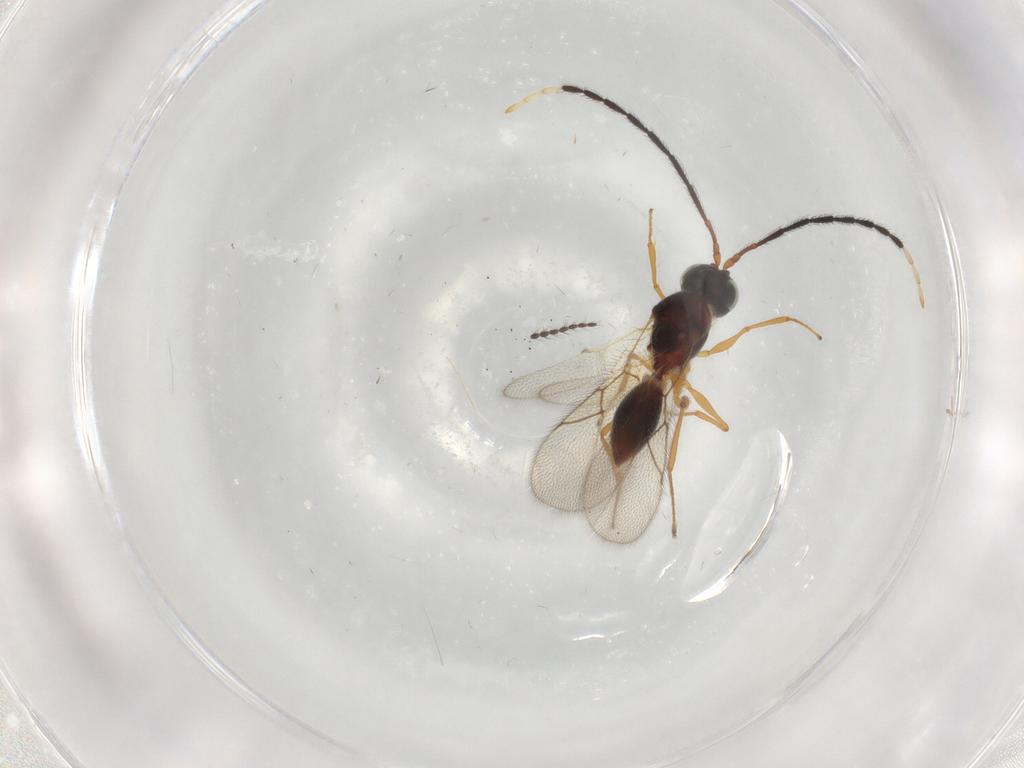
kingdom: Animalia
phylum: Arthropoda
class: Insecta
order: Hymenoptera
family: Figitidae
